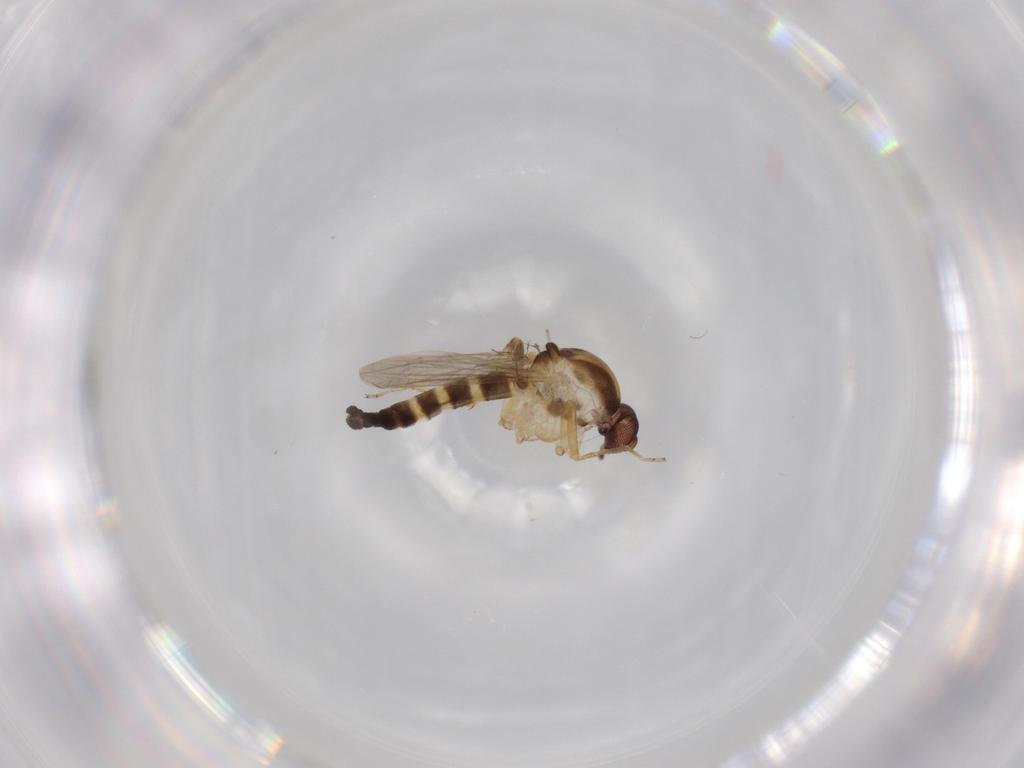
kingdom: Animalia
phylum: Arthropoda
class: Insecta
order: Diptera
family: Ceratopogonidae
